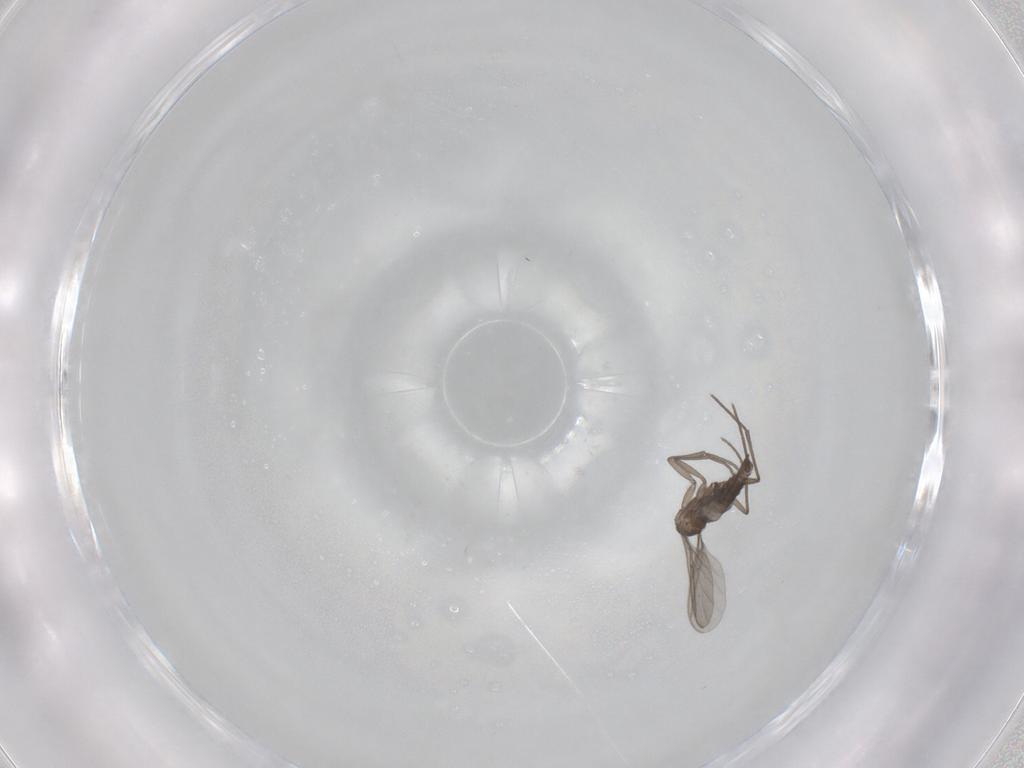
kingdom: Animalia
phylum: Arthropoda
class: Insecta
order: Diptera
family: Sciaridae
